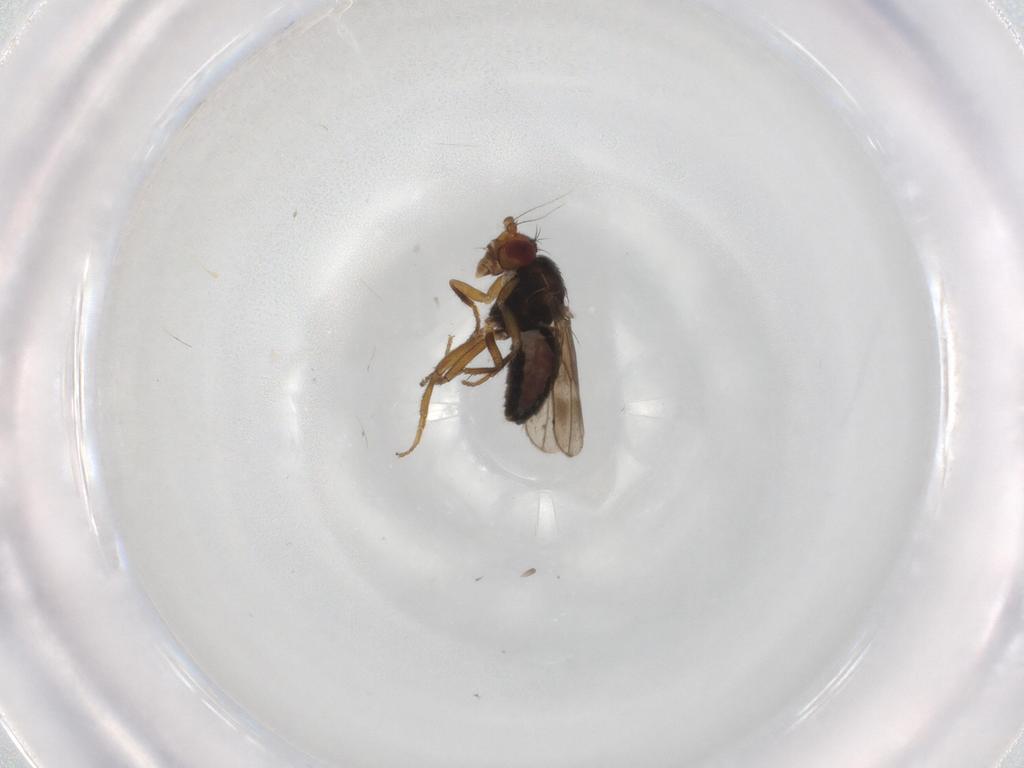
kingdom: Animalia
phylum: Arthropoda
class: Insecta
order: Diptera
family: Sphaeroceridae
